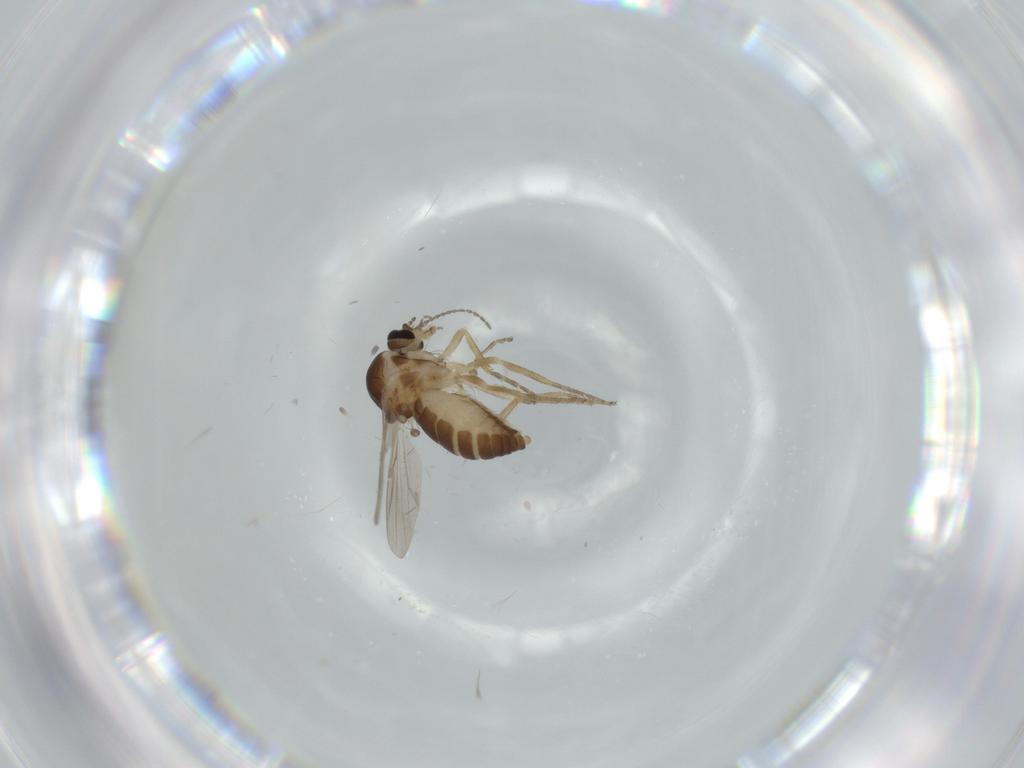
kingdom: Animalia
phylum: Arthropoda
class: Insecta
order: Diptera
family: Ceratopogonidae
